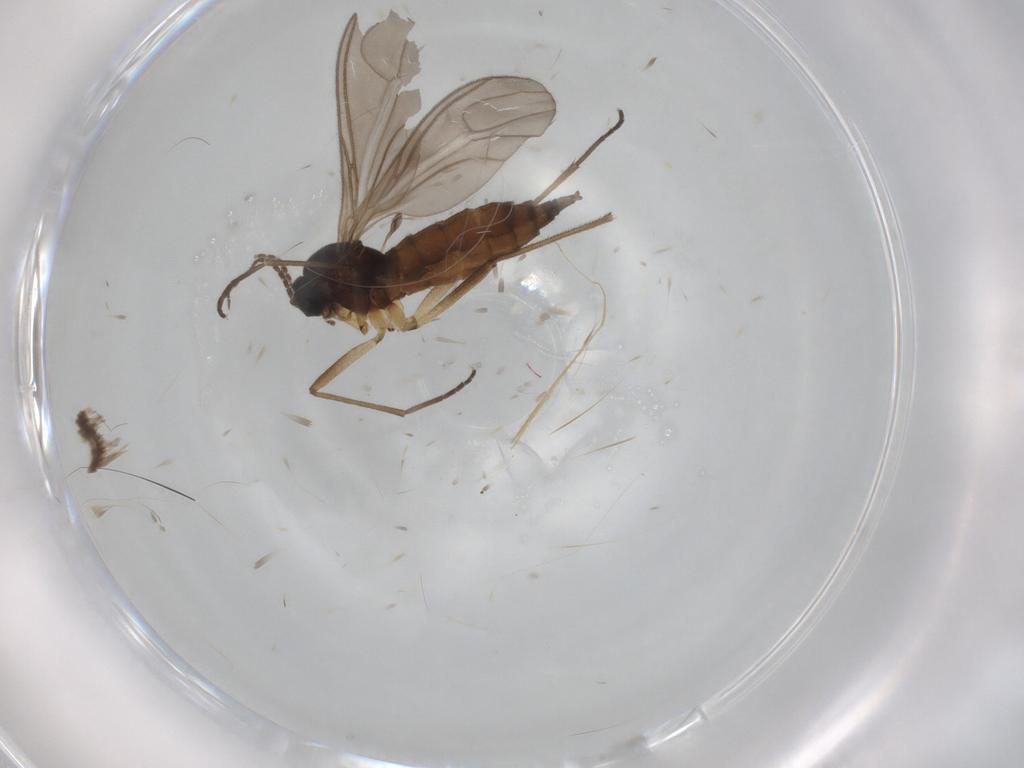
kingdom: Animalia
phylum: Arthropoda
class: Insecta
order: Diptera
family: Sciaridae
